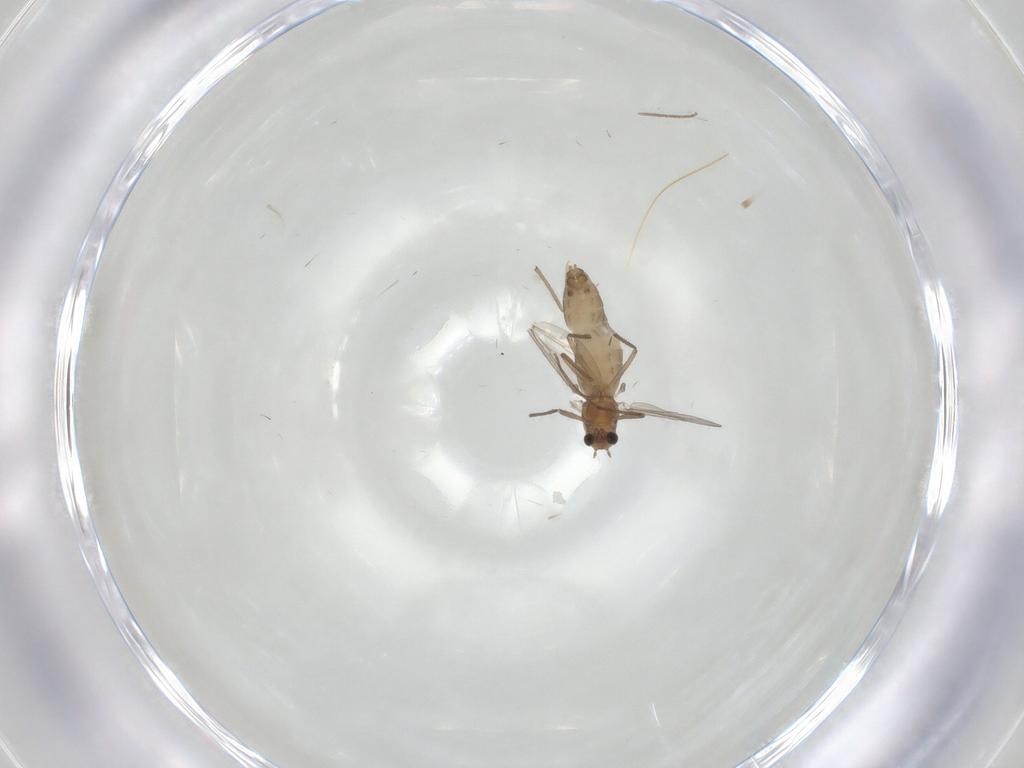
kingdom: Animalia
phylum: Arthropoda
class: Insecta
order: Diptera
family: Chironomidae
